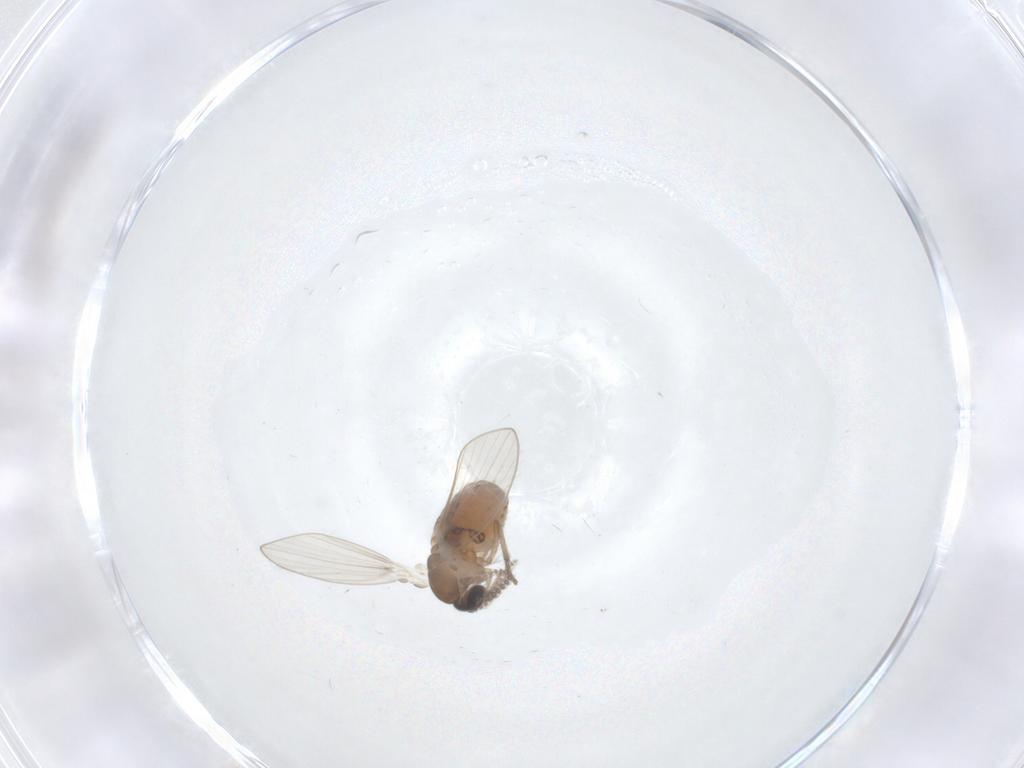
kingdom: Animalia
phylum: Arthropoda
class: Insecta
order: Diptera
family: Psychodidae
